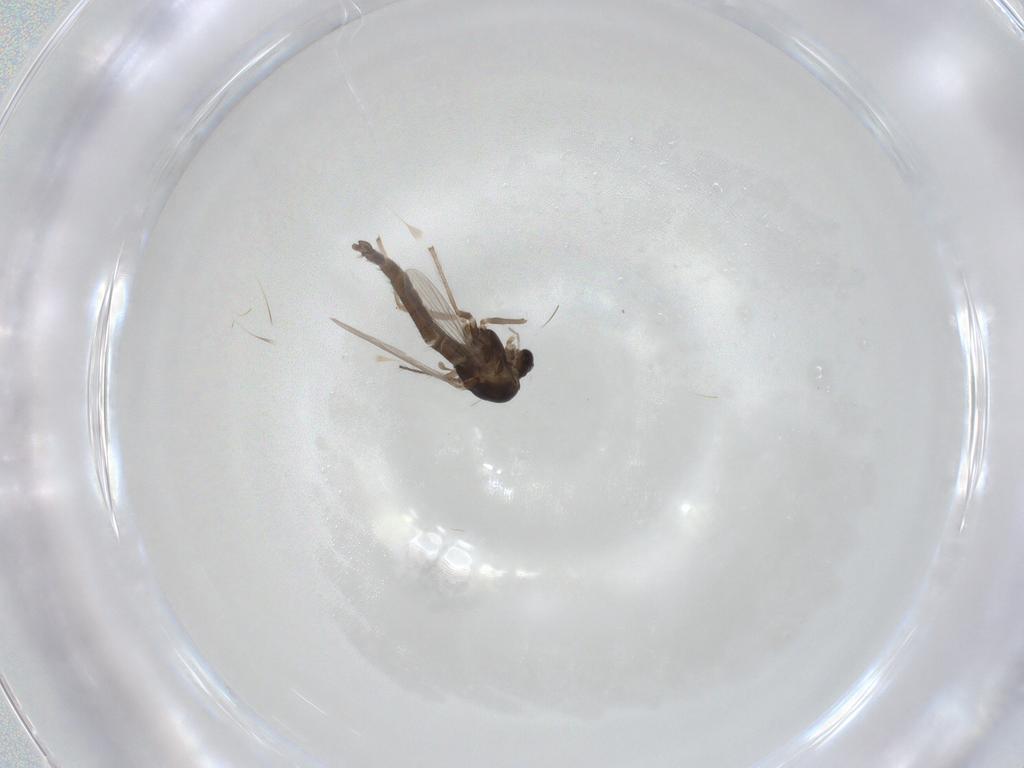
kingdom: Animalia
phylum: Arthropoda
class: Insecta
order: Diptera
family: Chironomidae
